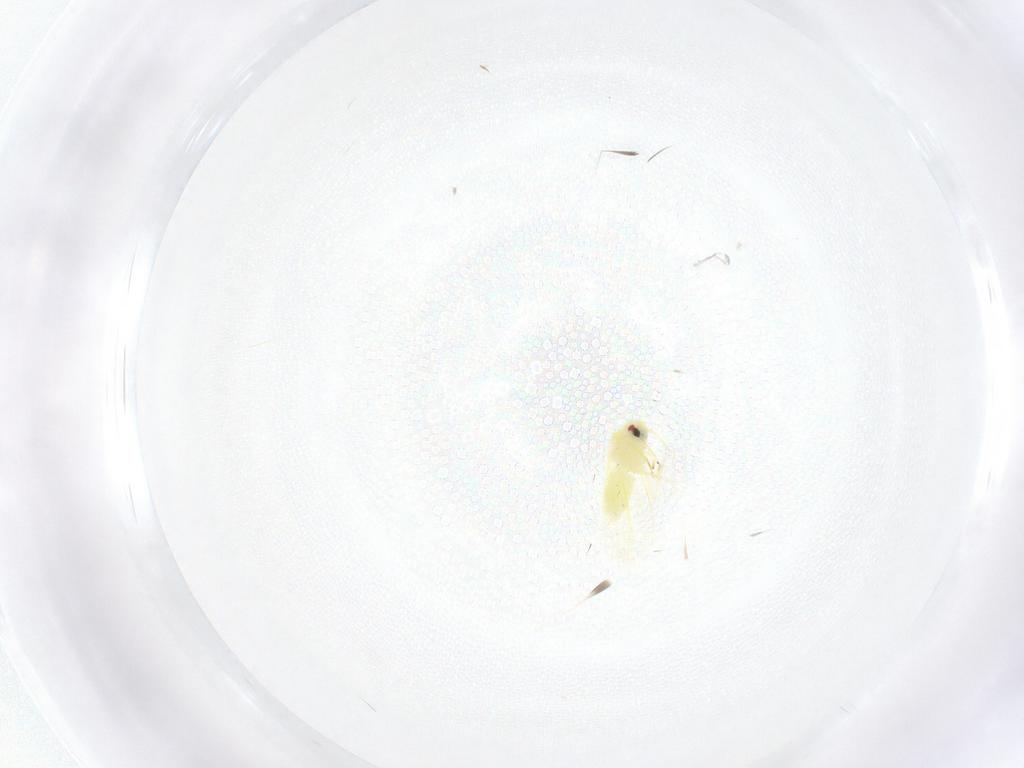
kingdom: Animalia
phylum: Arthropoda
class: Insecta
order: Hemiptera
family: Aleyrodidae
